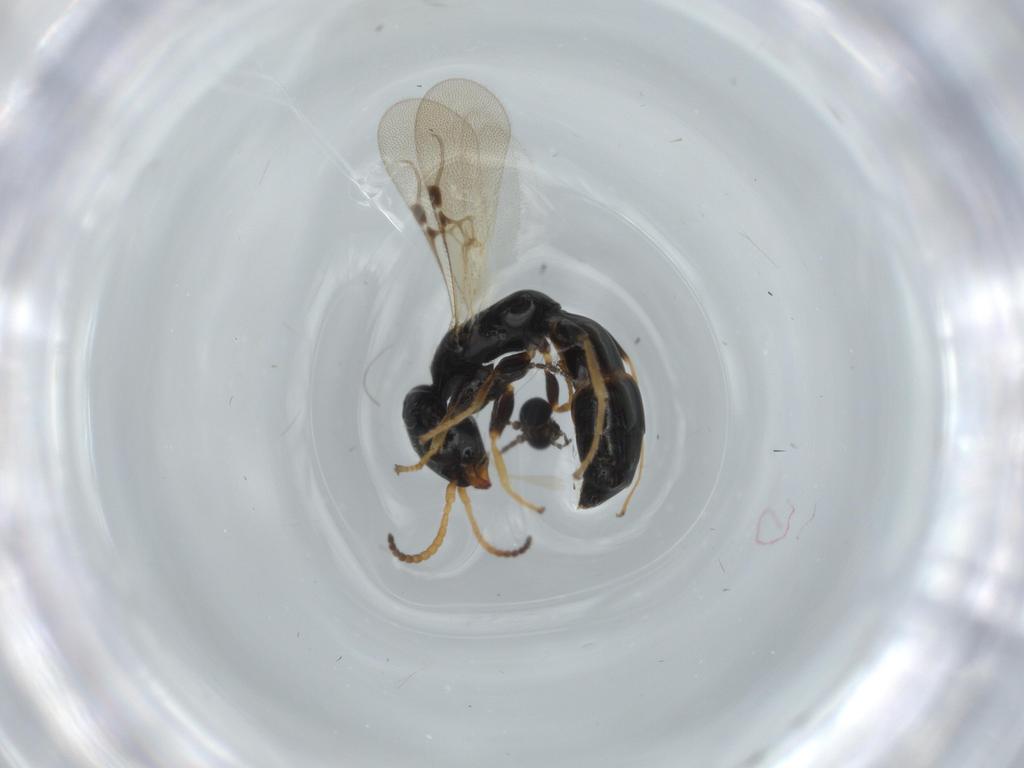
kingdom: Animalia
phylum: Arthropoda
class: Insecta
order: Hymenoptera
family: Bethylidae
